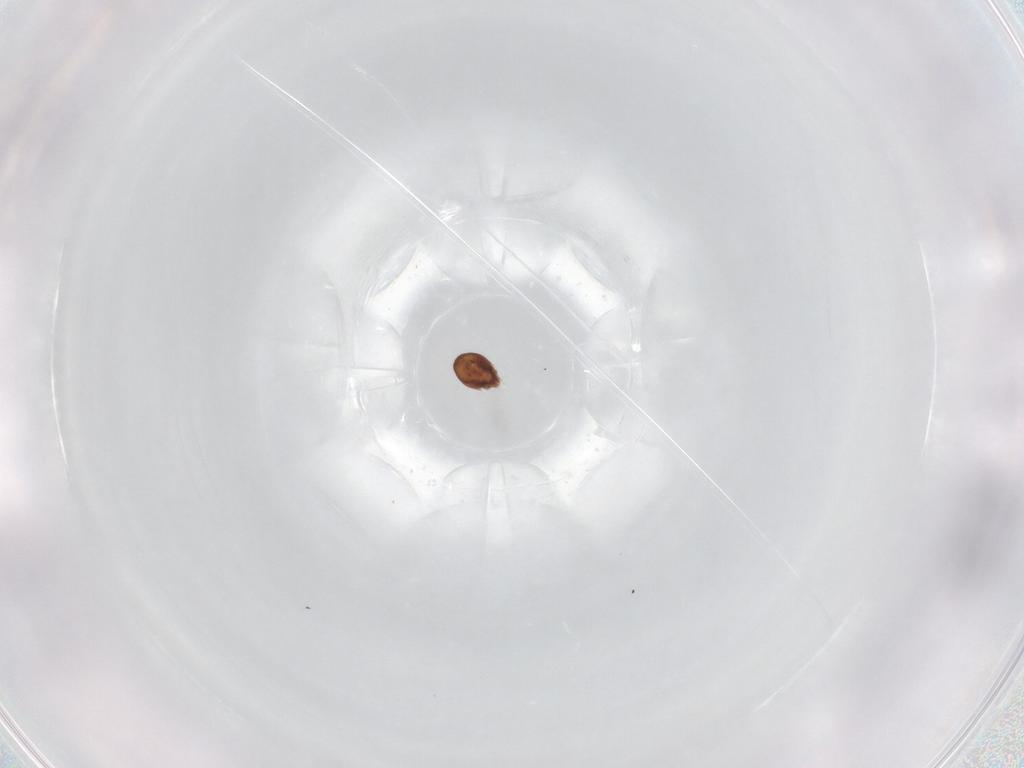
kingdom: Animalia
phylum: Arthropoda
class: Arachnida
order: Sarcoptiformes
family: Ceratozetidae
